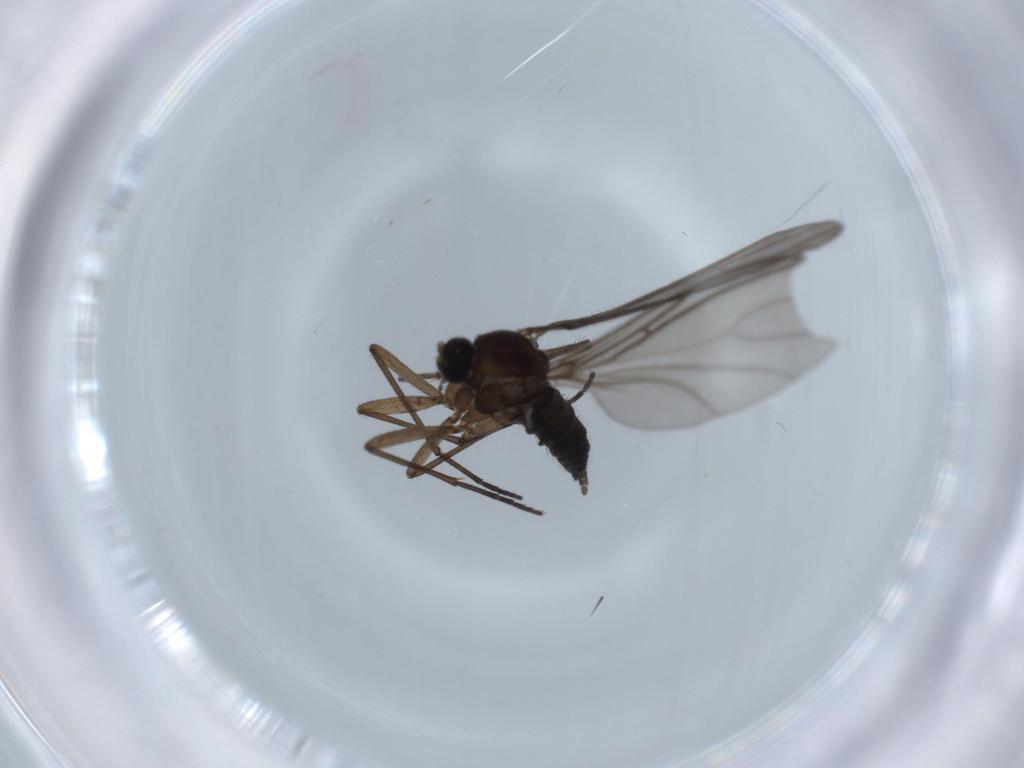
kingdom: Animalia
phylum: Arthropoda
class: Insecta
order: Diptera
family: Sciaridae
